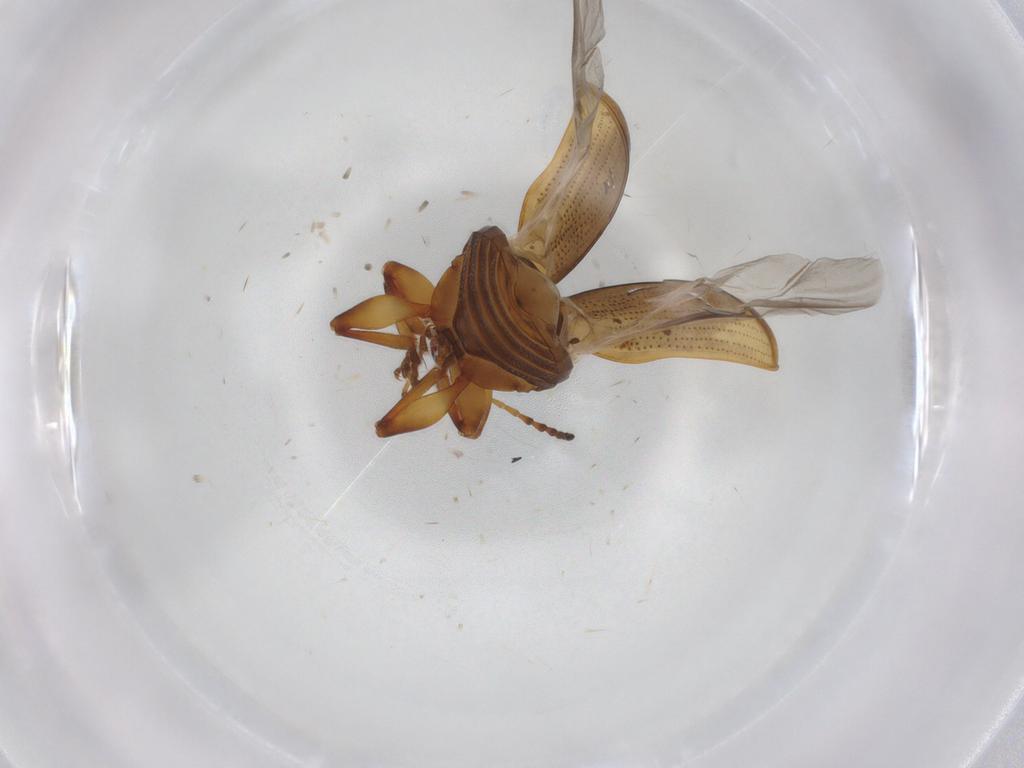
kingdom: Animalia
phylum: Arthropoda
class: Insecta
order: Coleoptera
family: Chrysomelidae
